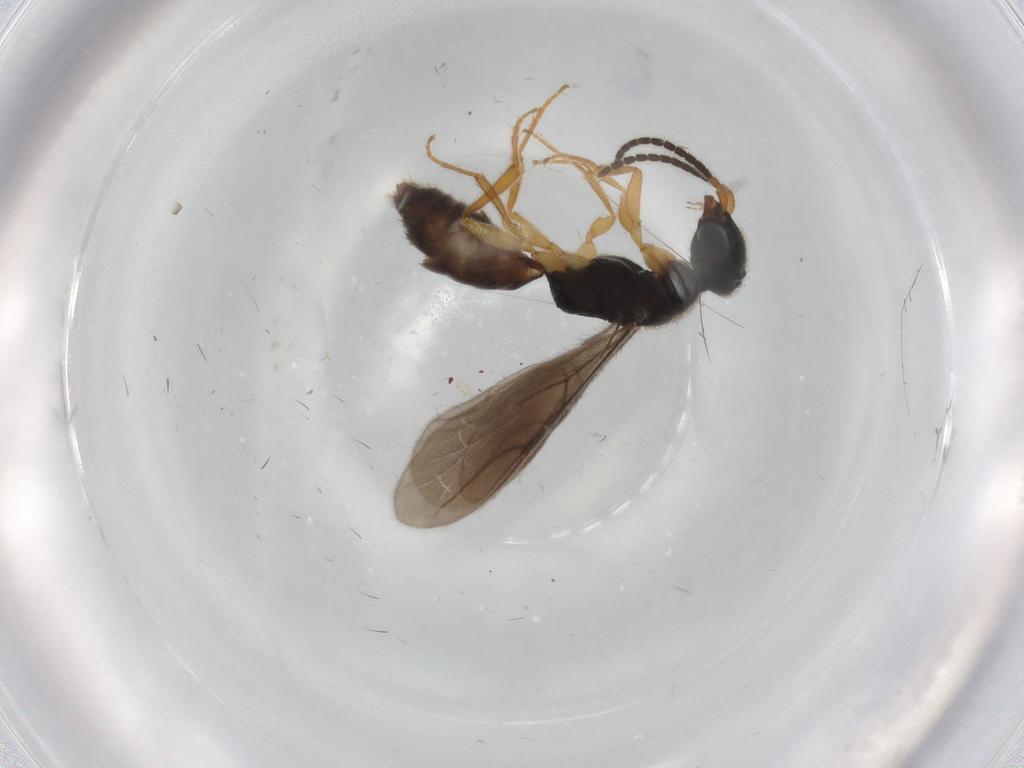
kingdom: Animalia
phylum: Arthropoda
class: Insecta
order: Hymenoptera
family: Bethylidae
